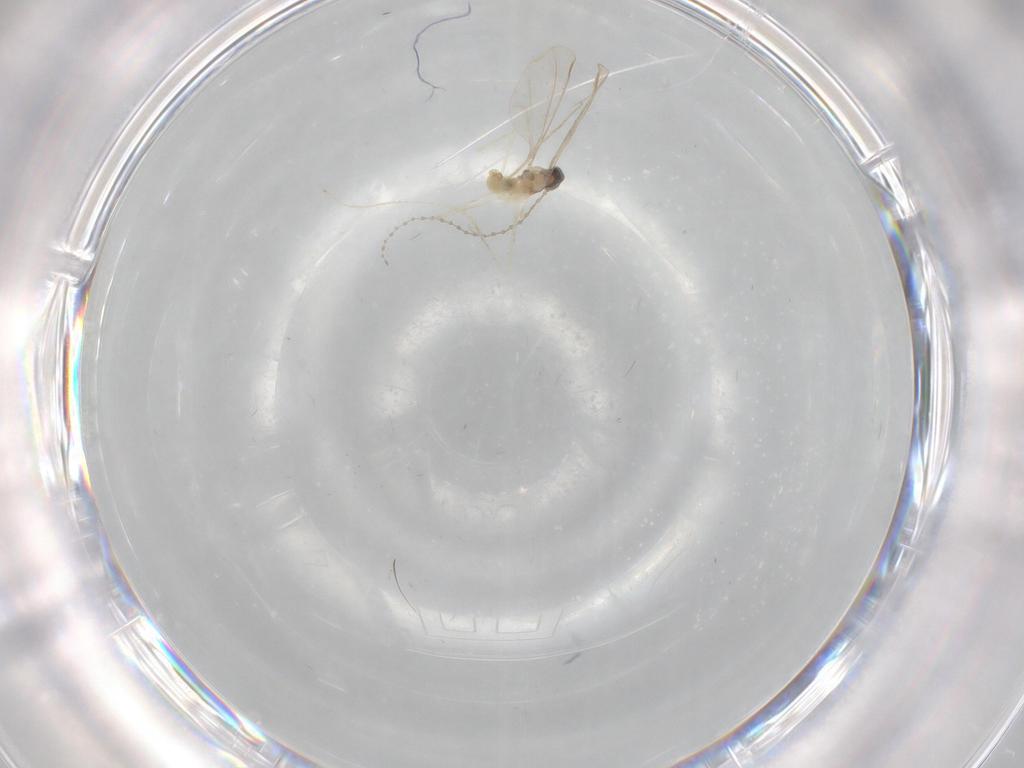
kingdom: Animalia
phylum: Arthropoda
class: Insecta
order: Diptera
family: Cecidomyiidae
